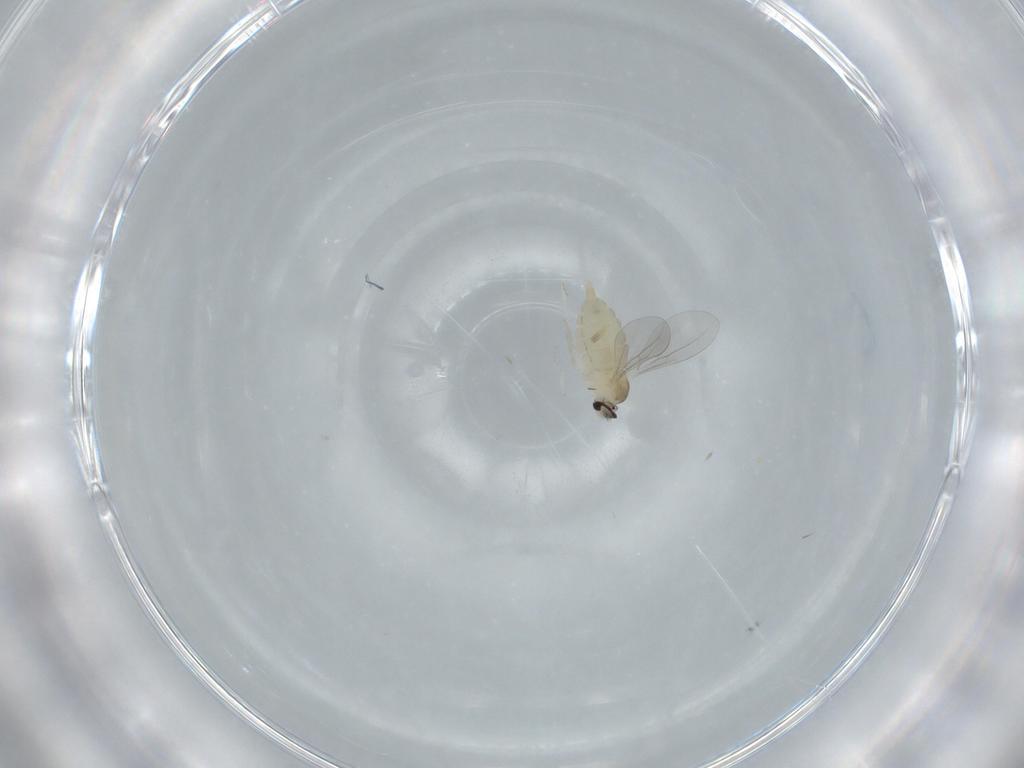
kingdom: Animalia
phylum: Arthropoda
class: Insecta
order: Diptera
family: Cecidomyiidae
